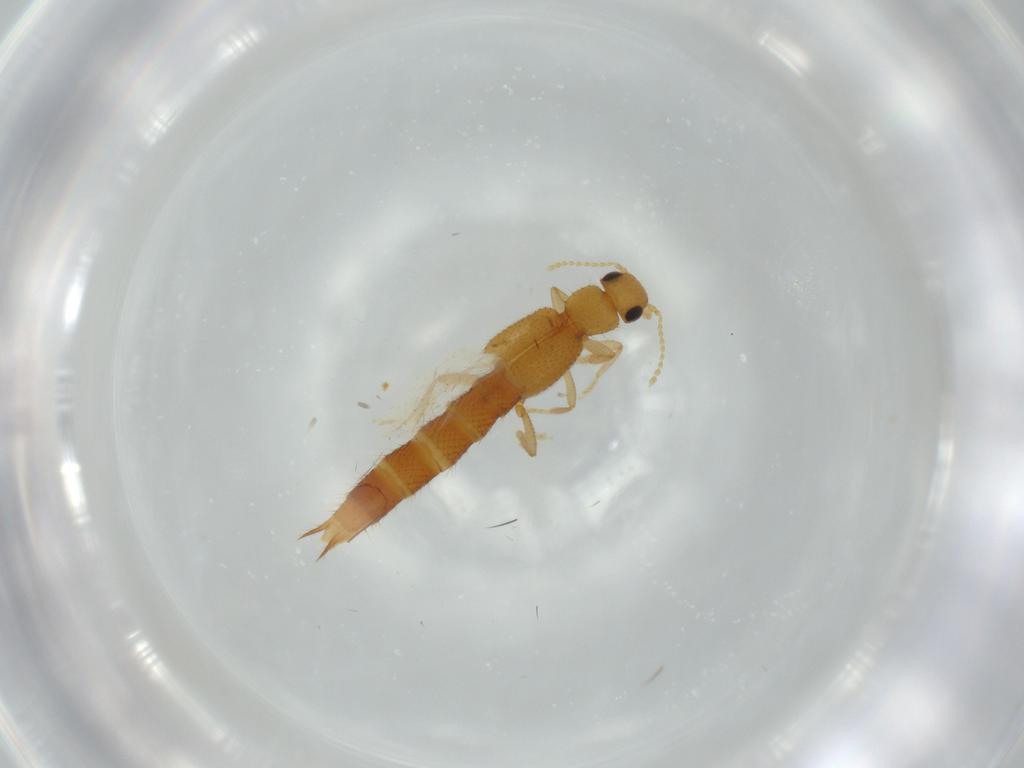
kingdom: Animalia
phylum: Arthropoda
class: Insecta
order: Coleoptera
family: Staphylinidae
